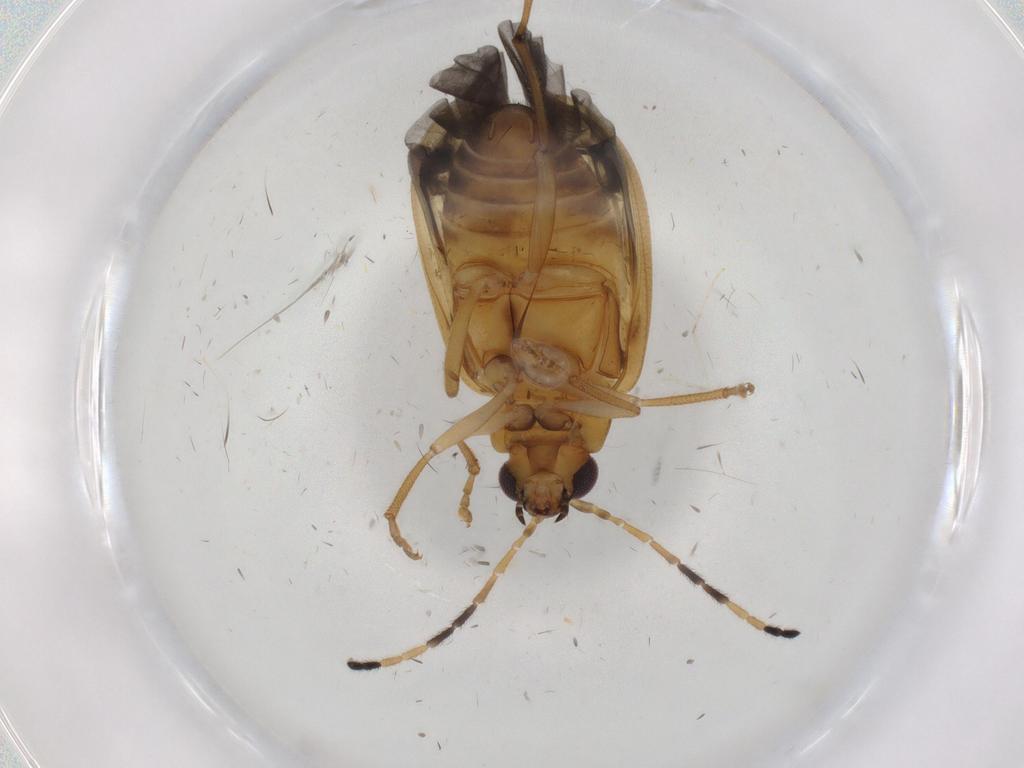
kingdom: Animalia
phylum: Arthropoda
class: Insecta
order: Coleoptera
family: Chrysomelidae
